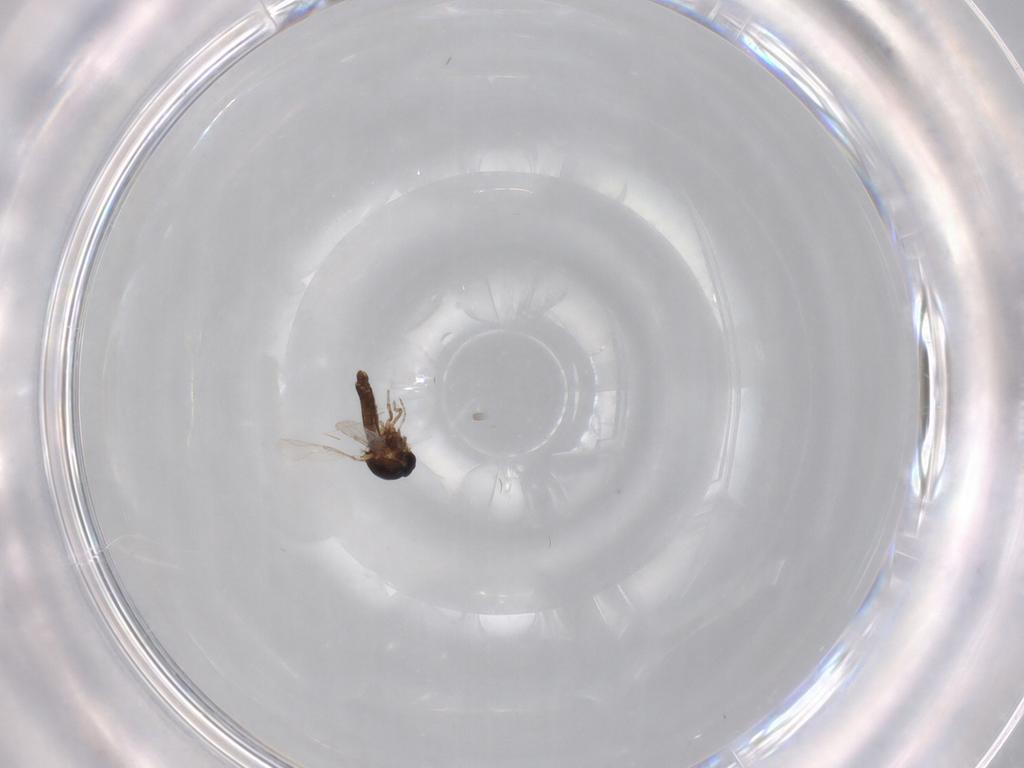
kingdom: Animalia
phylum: Arthropoda
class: Insecta
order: Diptera
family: Ceratopogonidae
